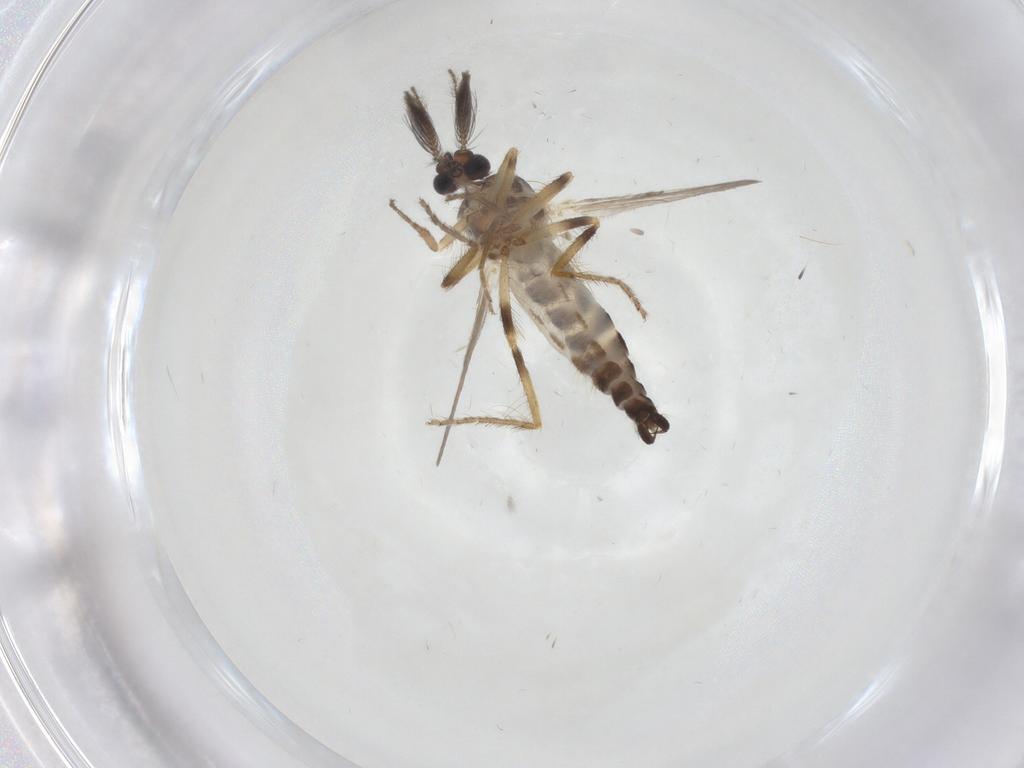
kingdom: Animalia
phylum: Arthropoda
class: Insecta
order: Diptera
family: Ceratopogonidae
